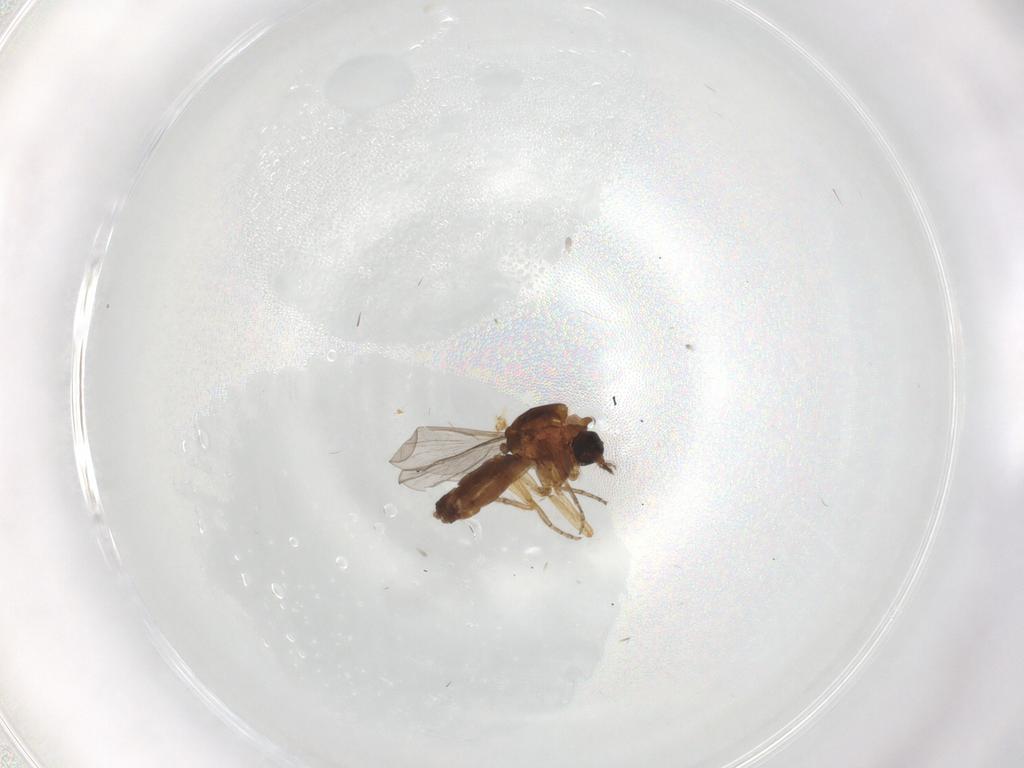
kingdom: Animalia
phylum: Arthropoda
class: Insecta
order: Diptera
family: Ceratopogonidae
